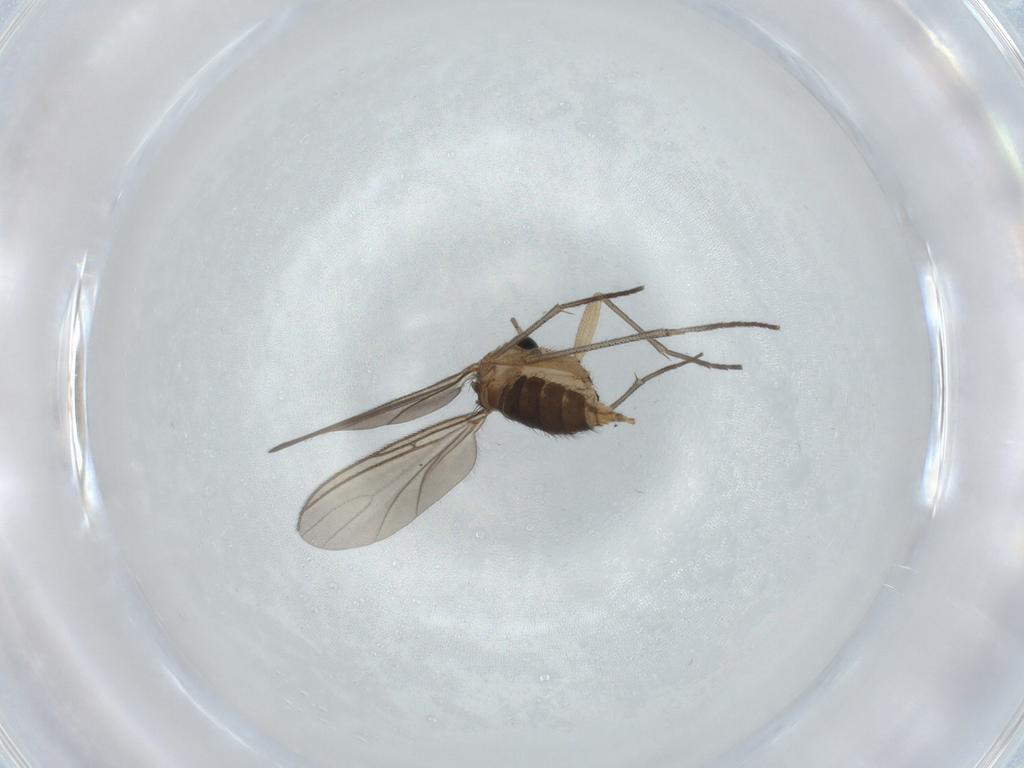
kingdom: Animalia
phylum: Arthropoda
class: Insecta
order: Diptera
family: Sciaridae
